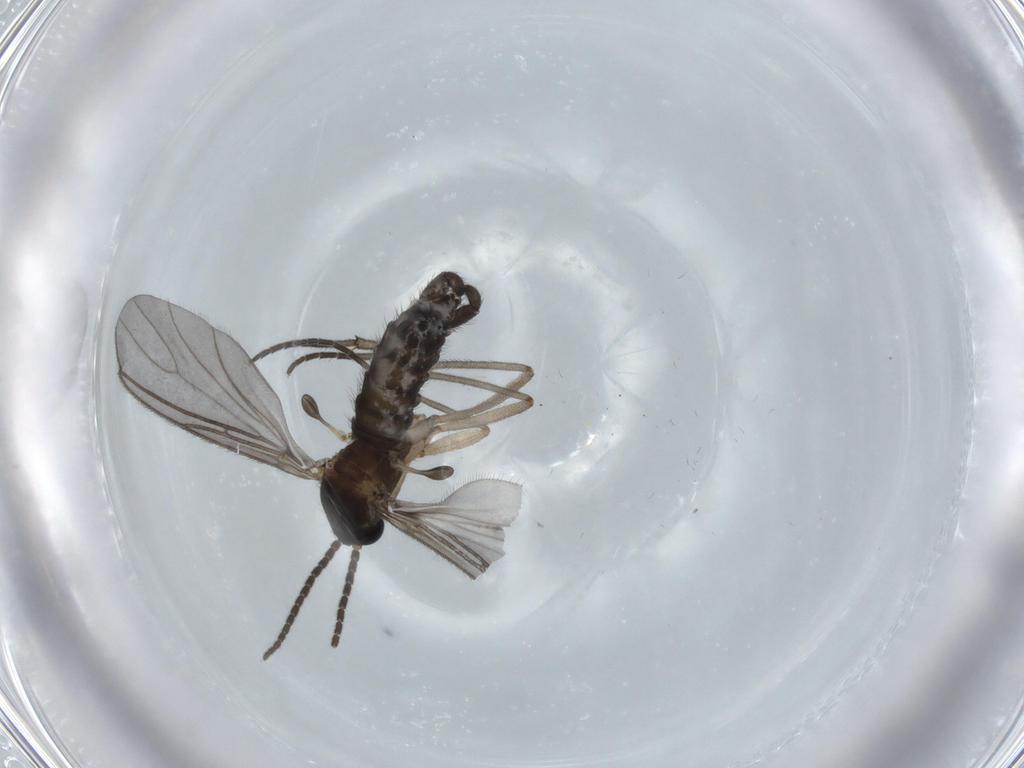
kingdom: Animalia
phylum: Arthropoda
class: Insecta
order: Diptera
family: Sciaridae
